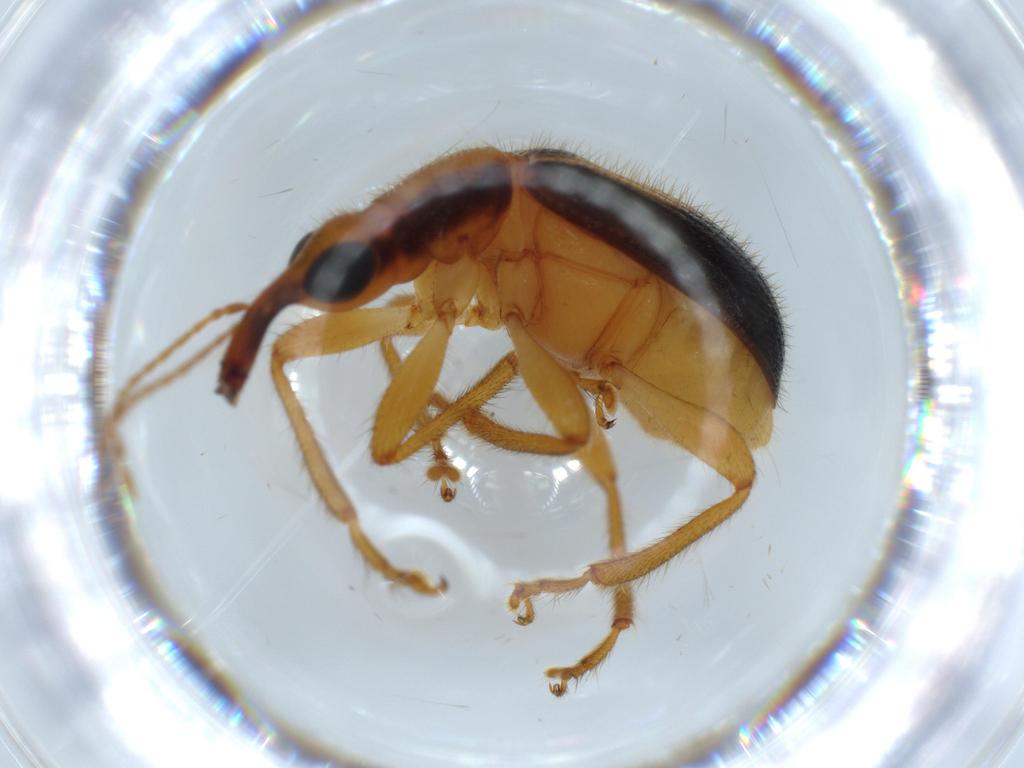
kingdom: Animalia
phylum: Arthropoda
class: Insecta
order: Coleoptera
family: Attelabidae
